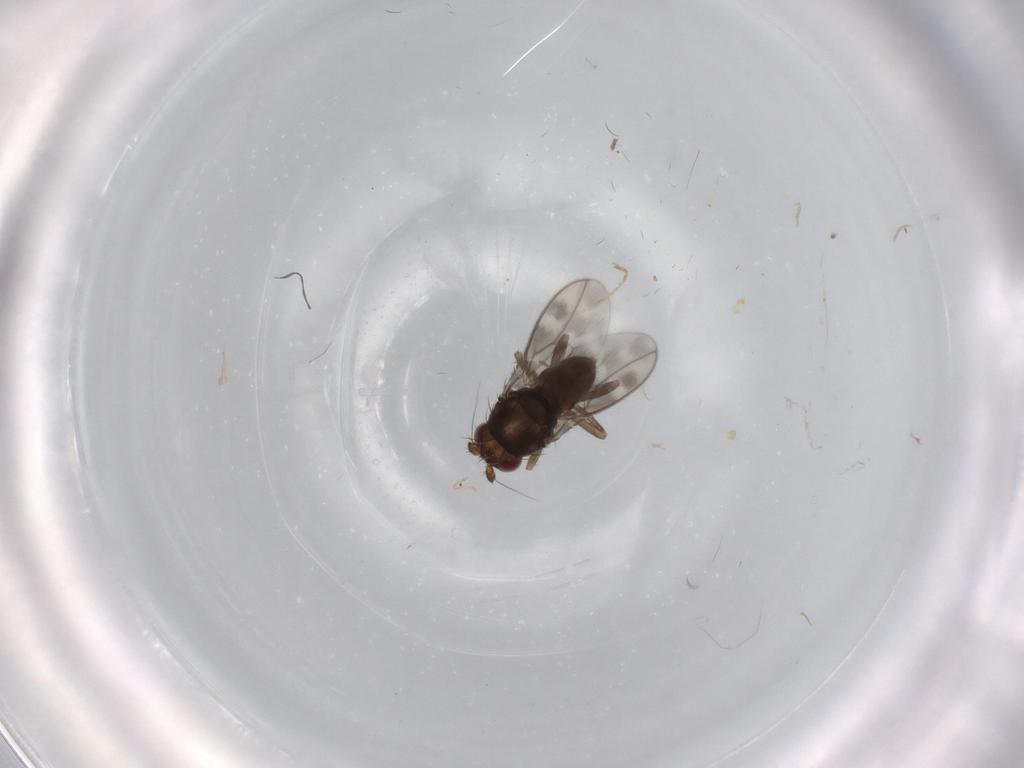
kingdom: Animalia
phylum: Arthropoda
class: Insecta
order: Diptera
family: Sphaeroceridae
